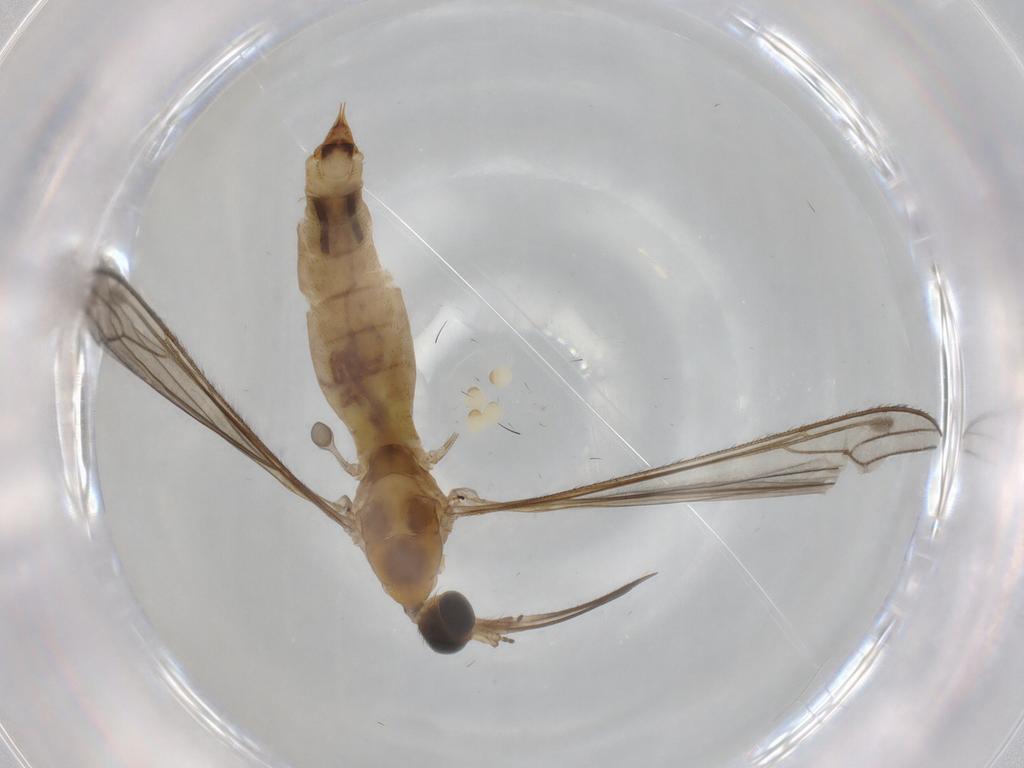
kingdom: Animalia
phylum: Arthropoda
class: Insecta
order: Diptera
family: Limoniidae
